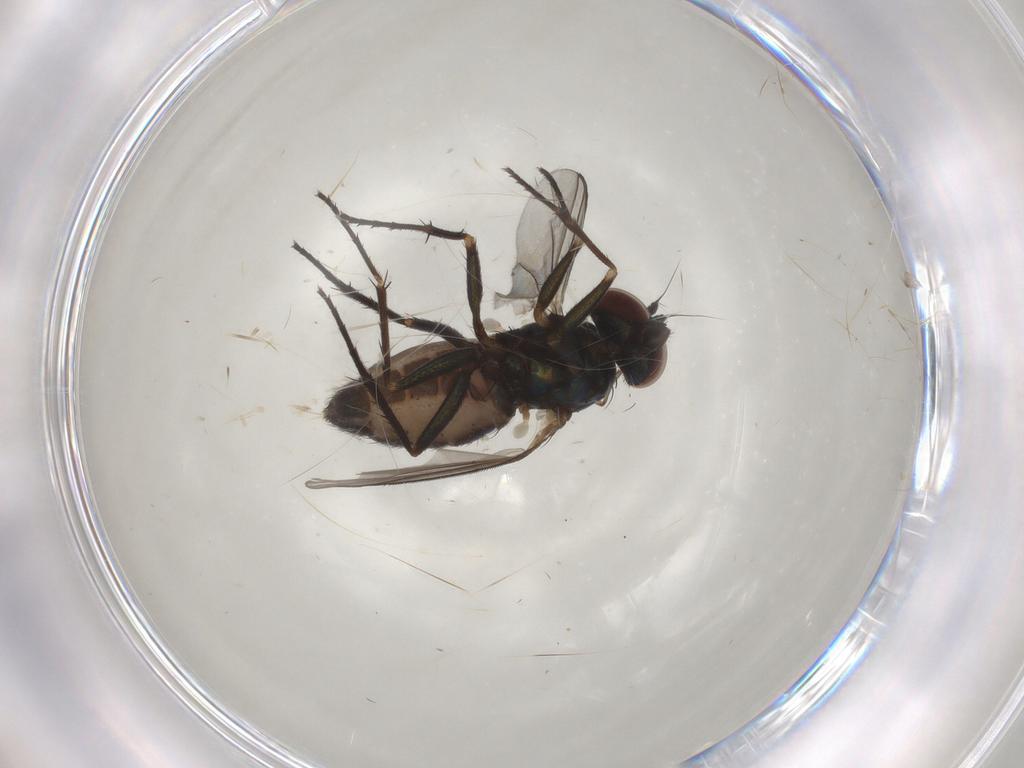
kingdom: Animalia
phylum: Arthropoda
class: Insecta
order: Diptera
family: Dolichopodidae
